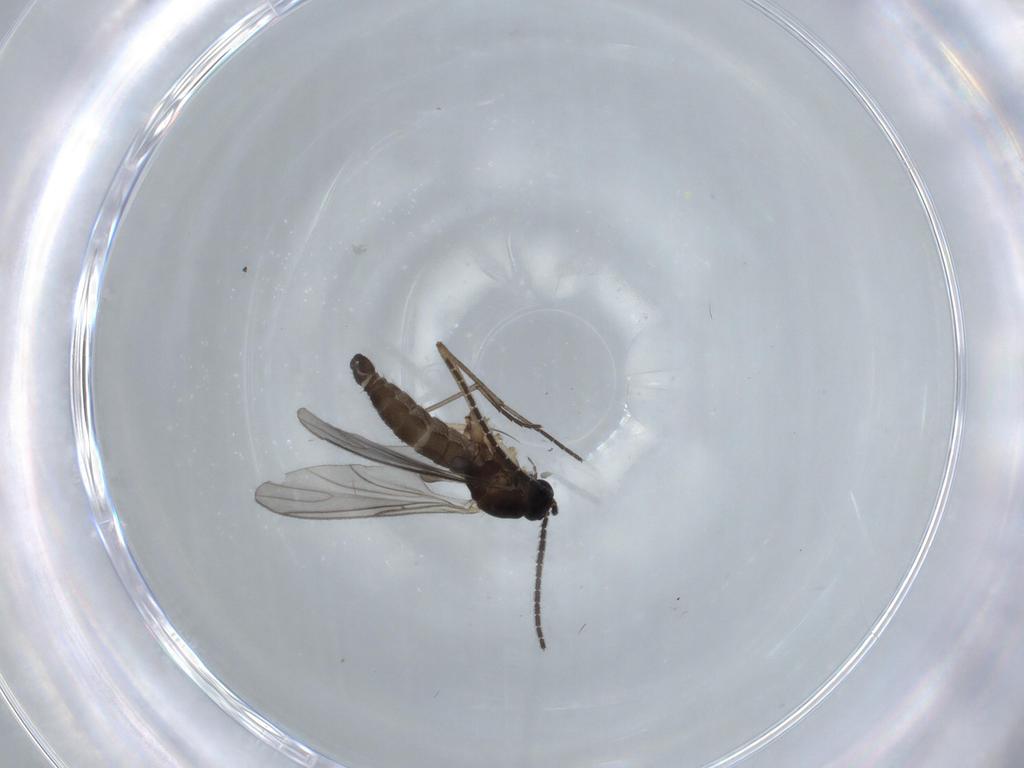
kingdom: Animalia
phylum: Arthropoda
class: Insecta
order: Diptera
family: Sciaridae
